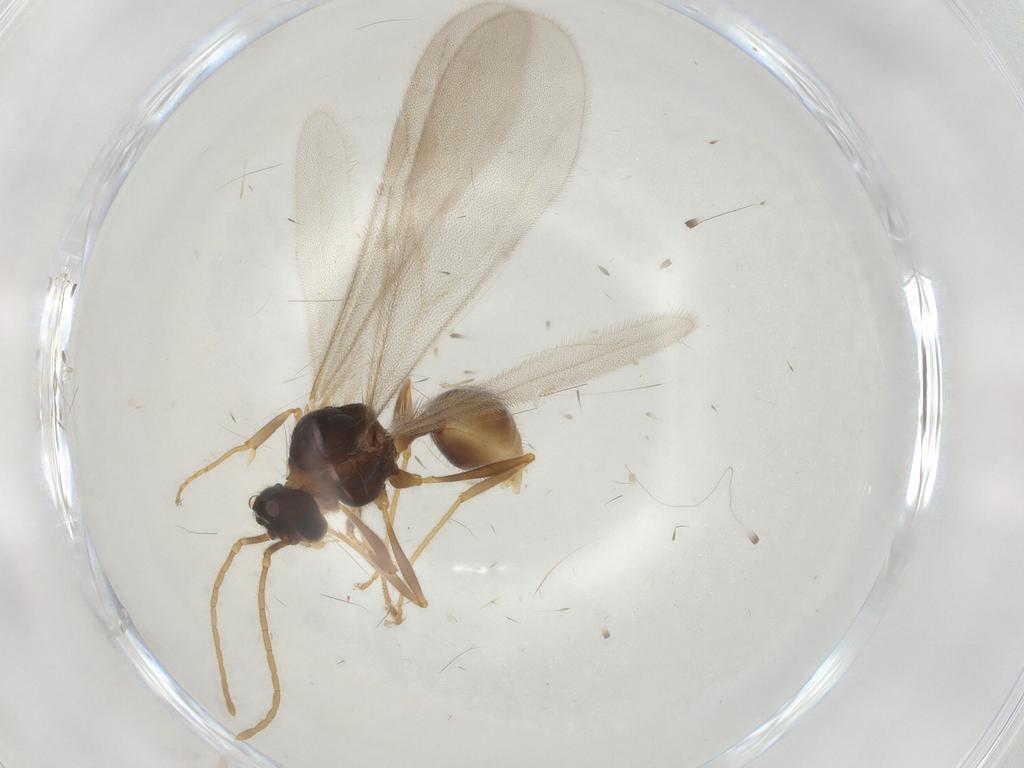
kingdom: Animalia
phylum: Arthropoda
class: Insecta
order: Hymenoptera
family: Formicidae
